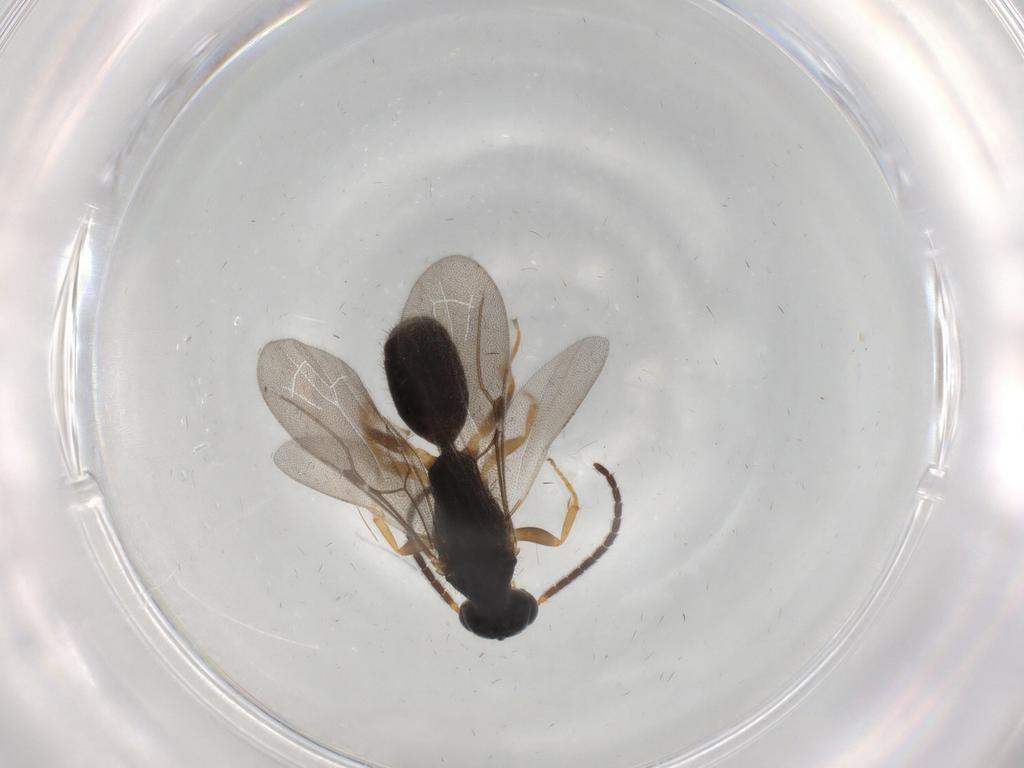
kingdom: Animalia
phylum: Arthropoda
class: Insecta
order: Hymenoptera
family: Bethylidae
